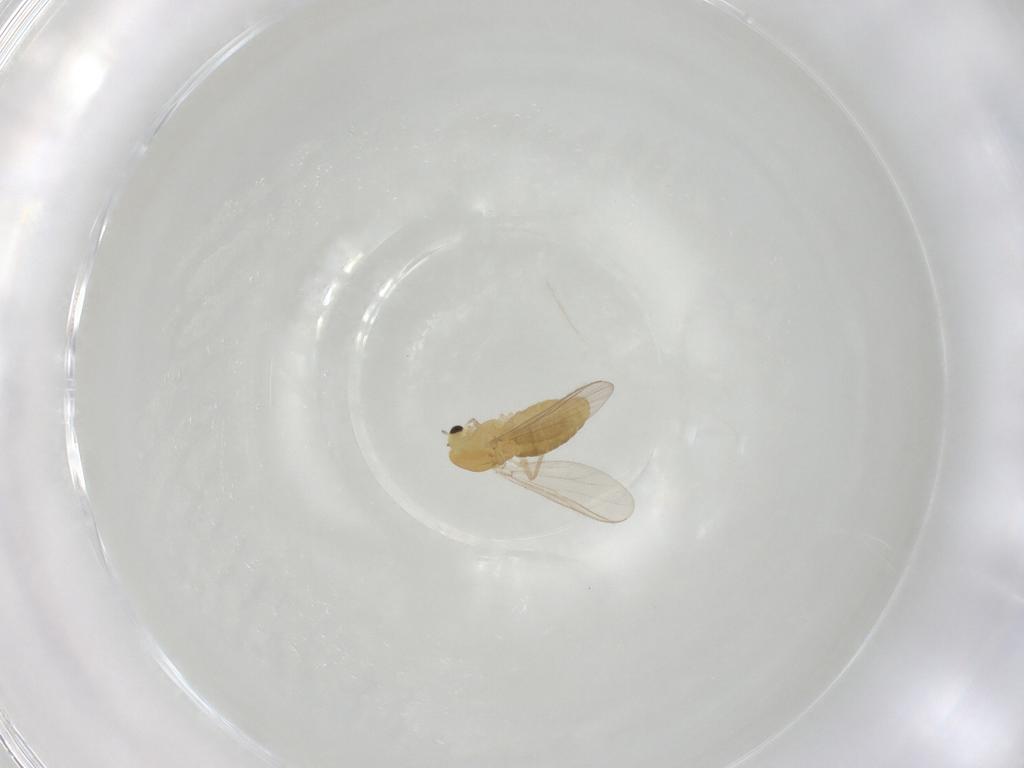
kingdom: Animalia
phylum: Arthropoda
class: Insecta
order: Diptera
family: Chironomidae
